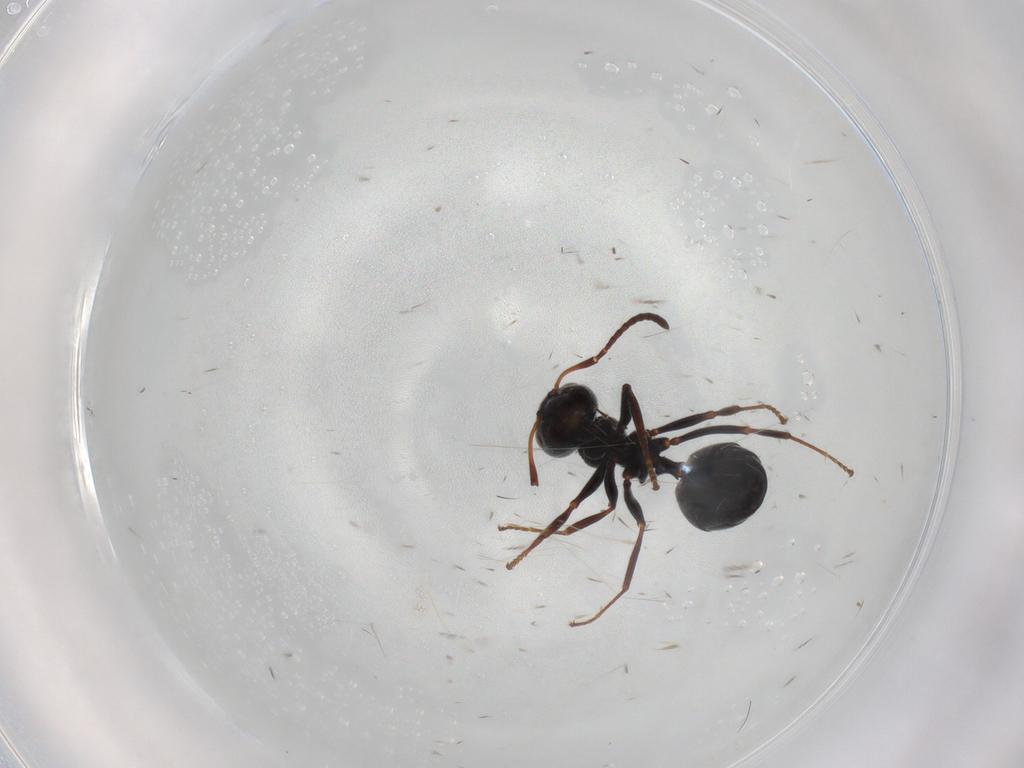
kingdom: Animalia
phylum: Arthropoda
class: Insecta
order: Hymenoptera
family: Formicidae
